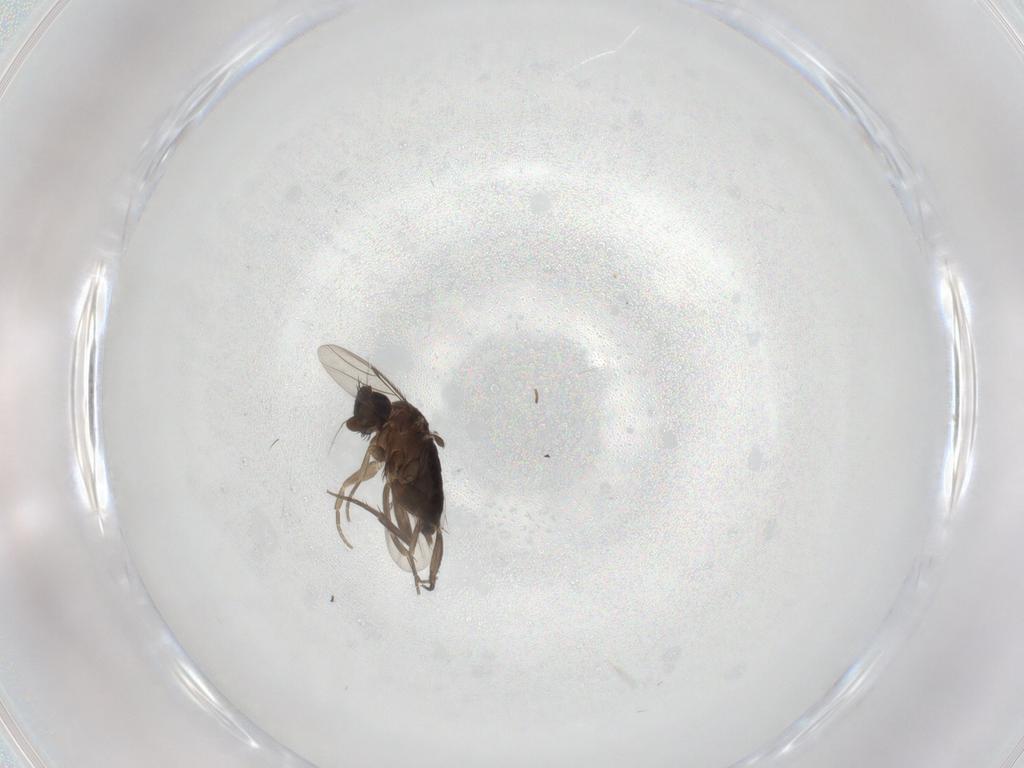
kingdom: Animalia
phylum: Arthropoda
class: Insecta
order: Diptera
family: Phoridae
